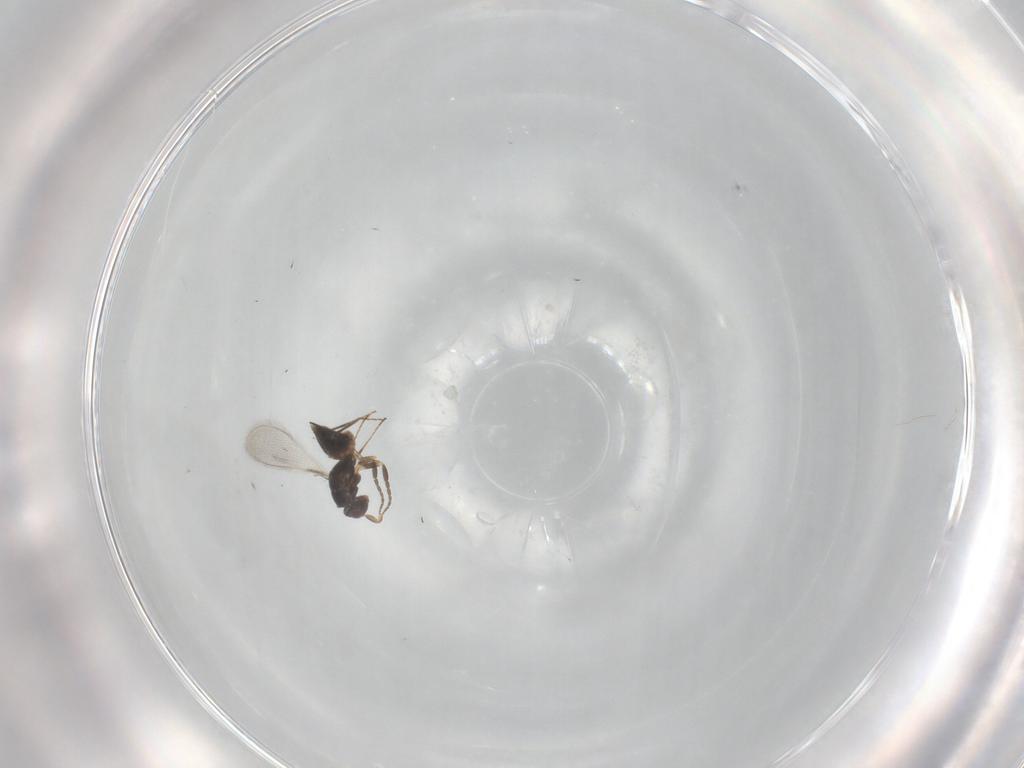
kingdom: Animalia
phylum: Arthropoda
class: Insecta
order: Hymenoptera
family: Mymaridae
